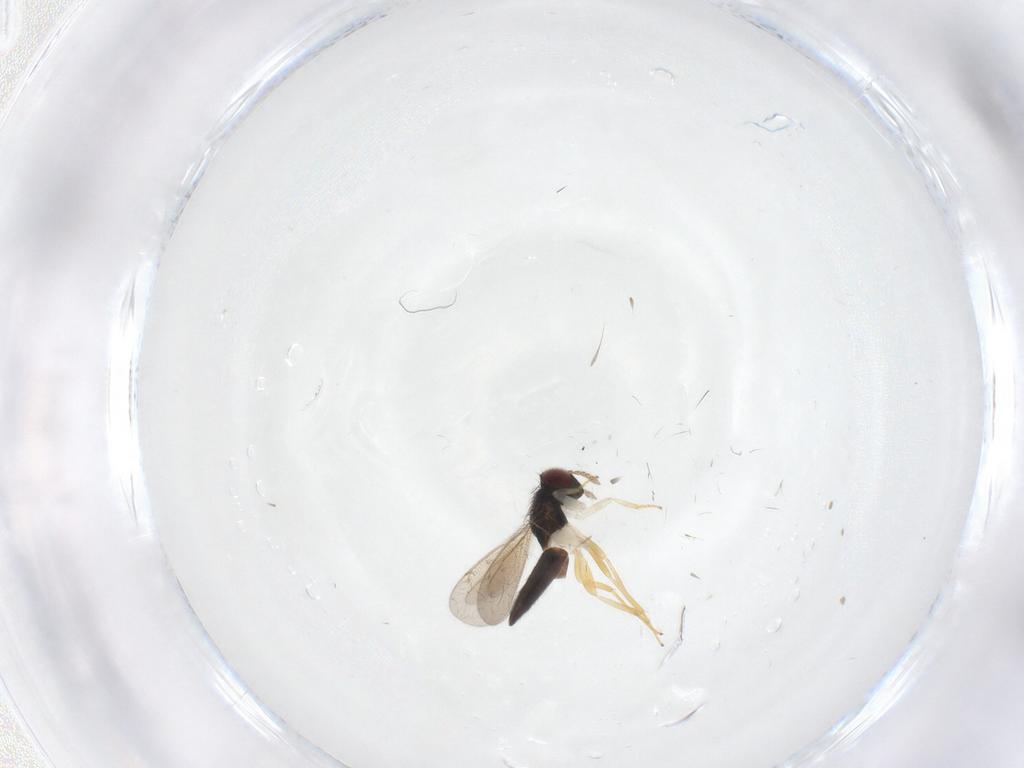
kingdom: Animalia
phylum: Arthropoda
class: Insecta
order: Hymenoptera
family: Eulophidae
